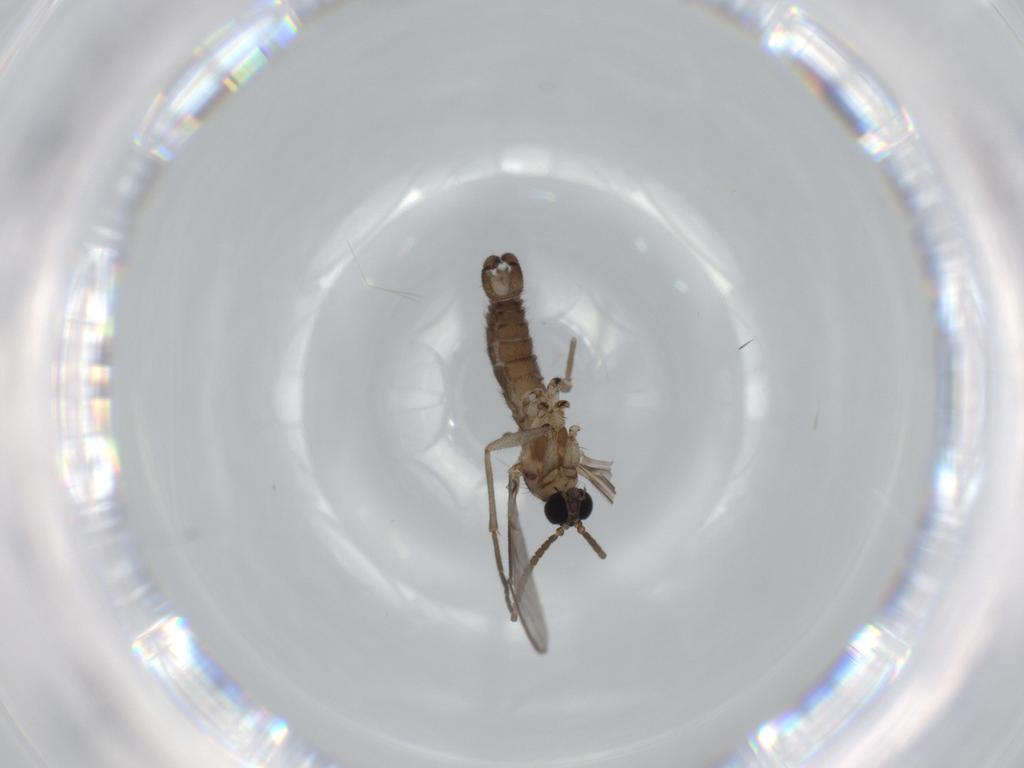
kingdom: Animalia
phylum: Arthropoda
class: Insecta
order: Diptera
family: Sciaridae
